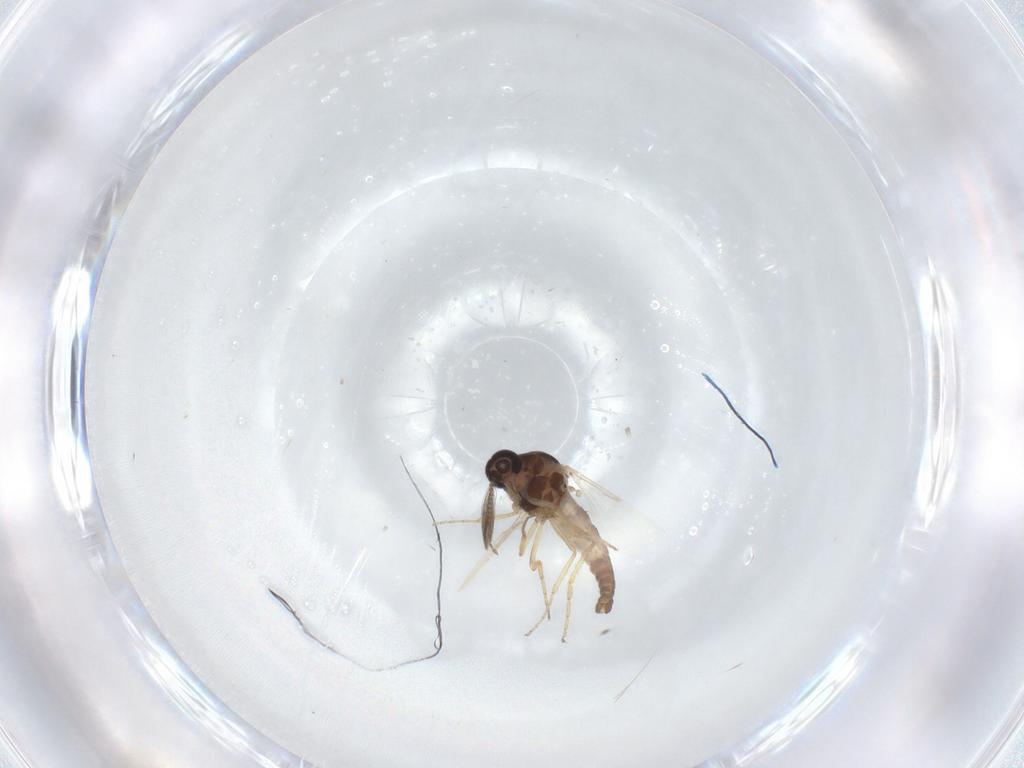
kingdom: Animalia
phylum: Arthropoda
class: Insecta
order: Diptera
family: Ceratopogonidae
